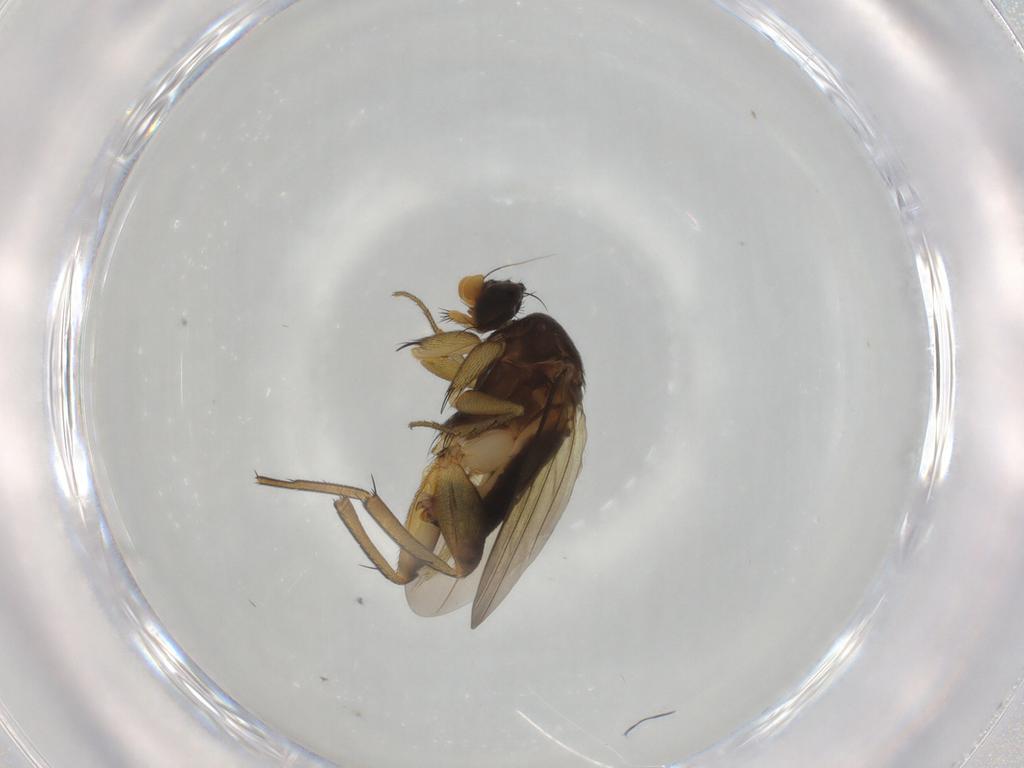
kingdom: Animalia
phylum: Arthropoda
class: Insecta
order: Diptera
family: Phoridae
